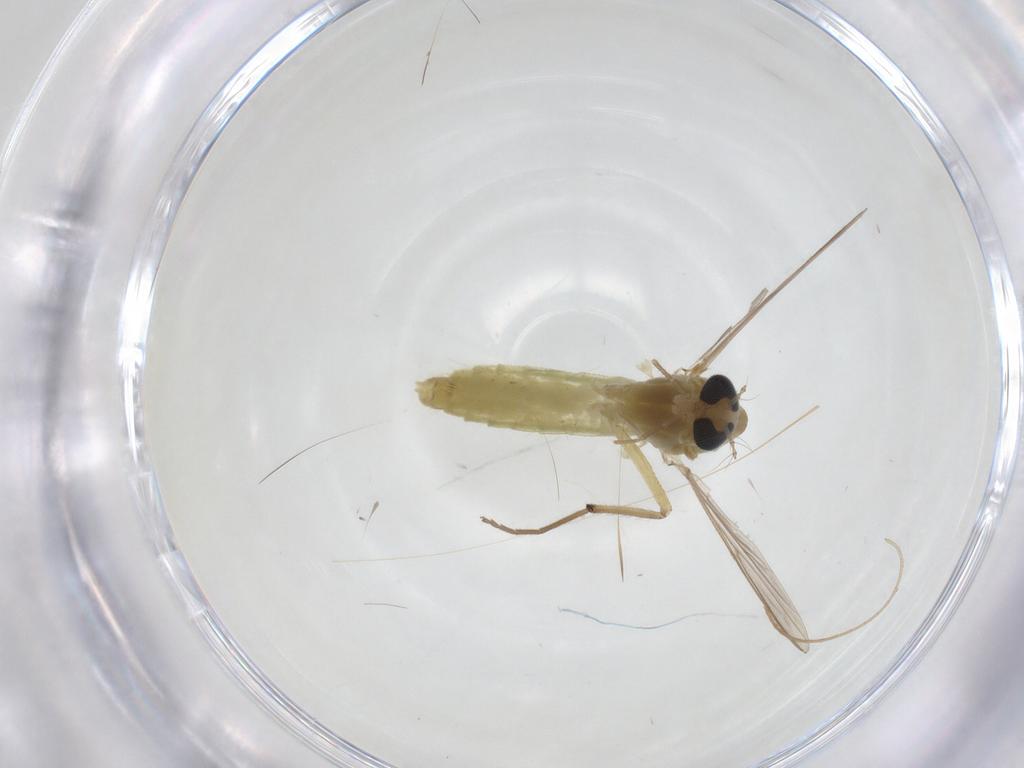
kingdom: Animalia
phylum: Arthropoda
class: Insecta
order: Diptera
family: Chironomidae
